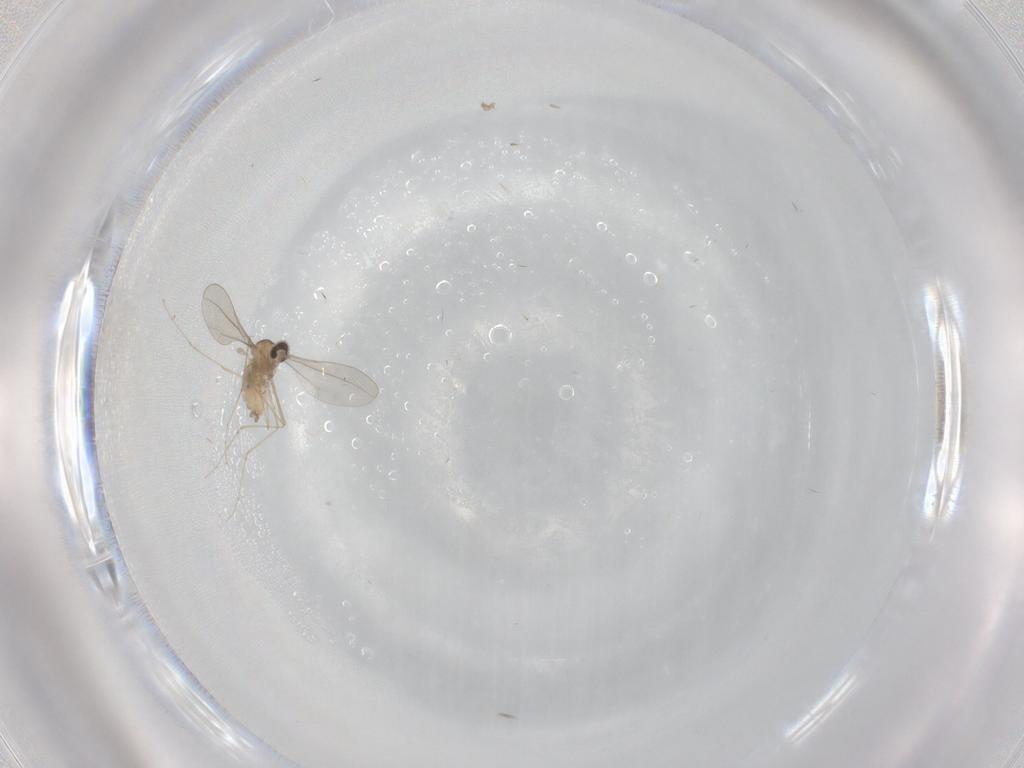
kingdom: Animalia
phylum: Arthropoda
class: Insecta
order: Diptera
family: Cecidomyiidae
